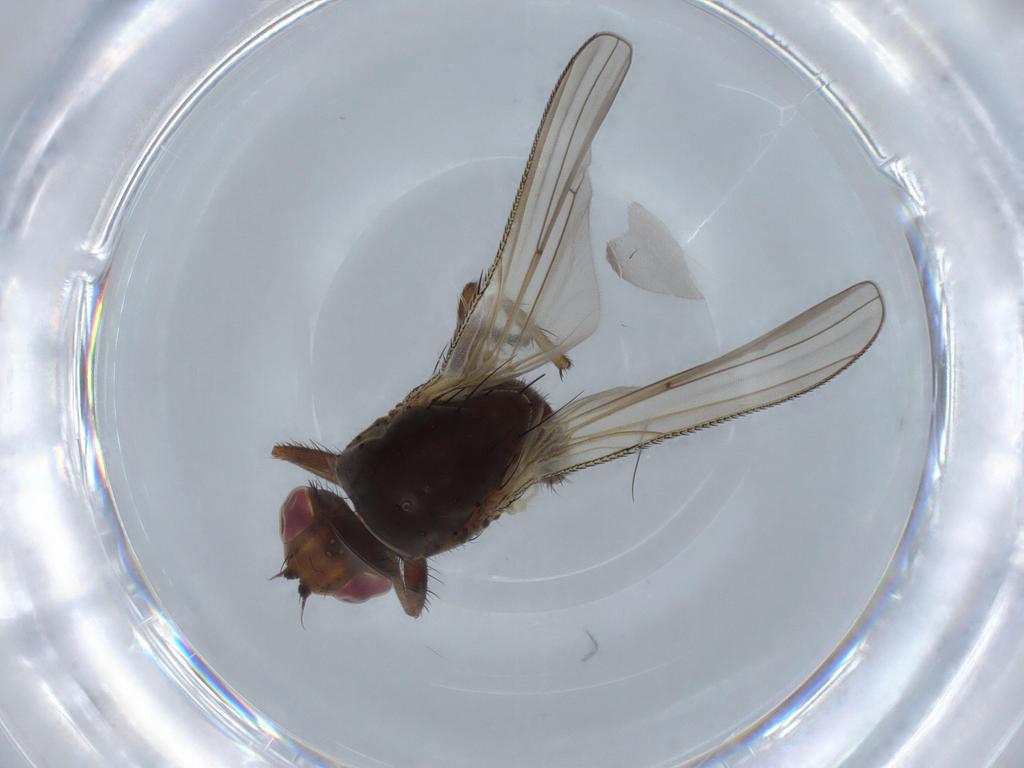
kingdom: Animalia
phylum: Arthropoda
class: Insecta
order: Diptera
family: Anthomyiidae
